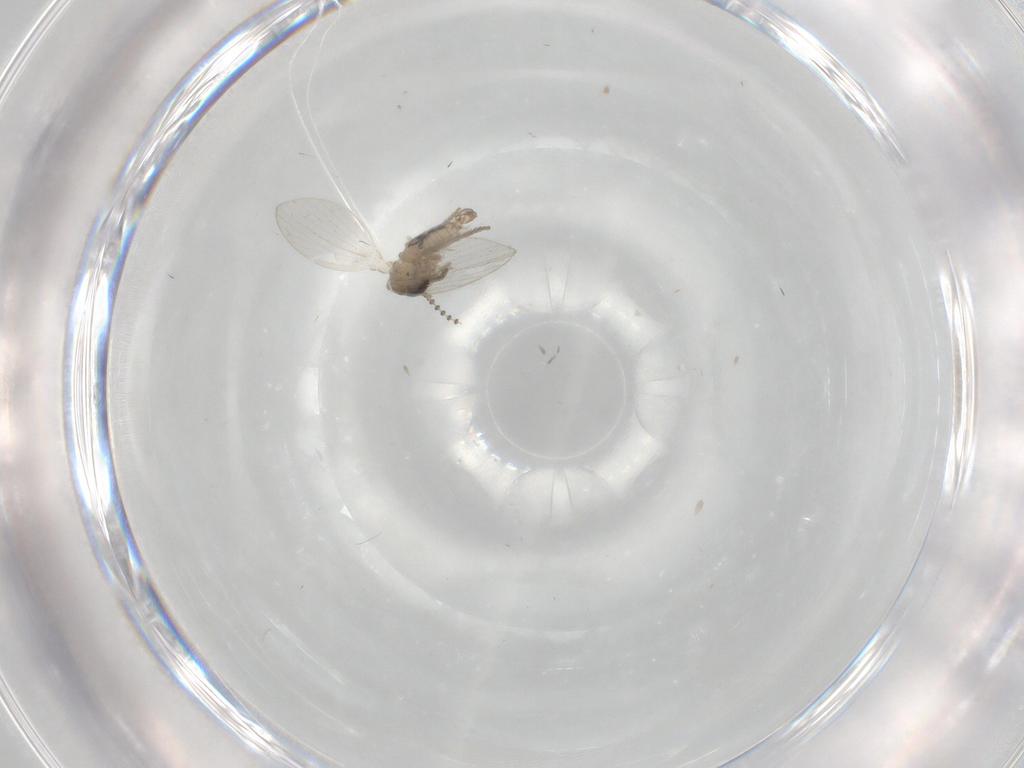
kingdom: Animalia
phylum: Arthropoda
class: Insecta
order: Diptera
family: Psychodidae
